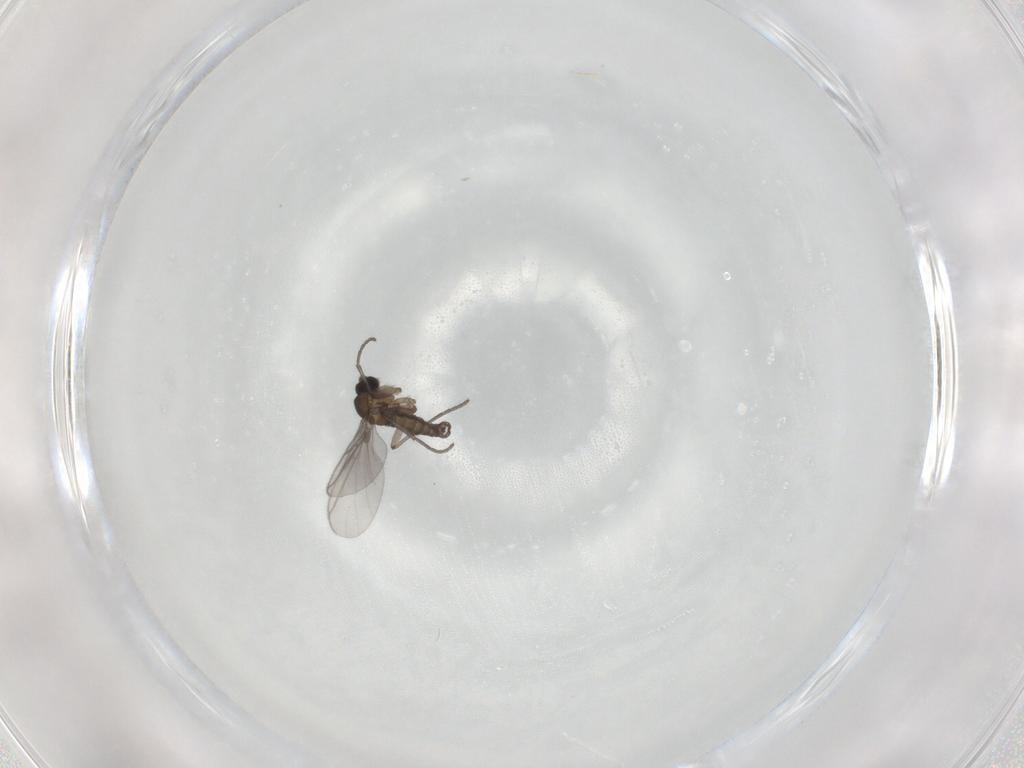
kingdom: Animalia
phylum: Arthropoda
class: Insecta
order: Diptera
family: Sciaridae
